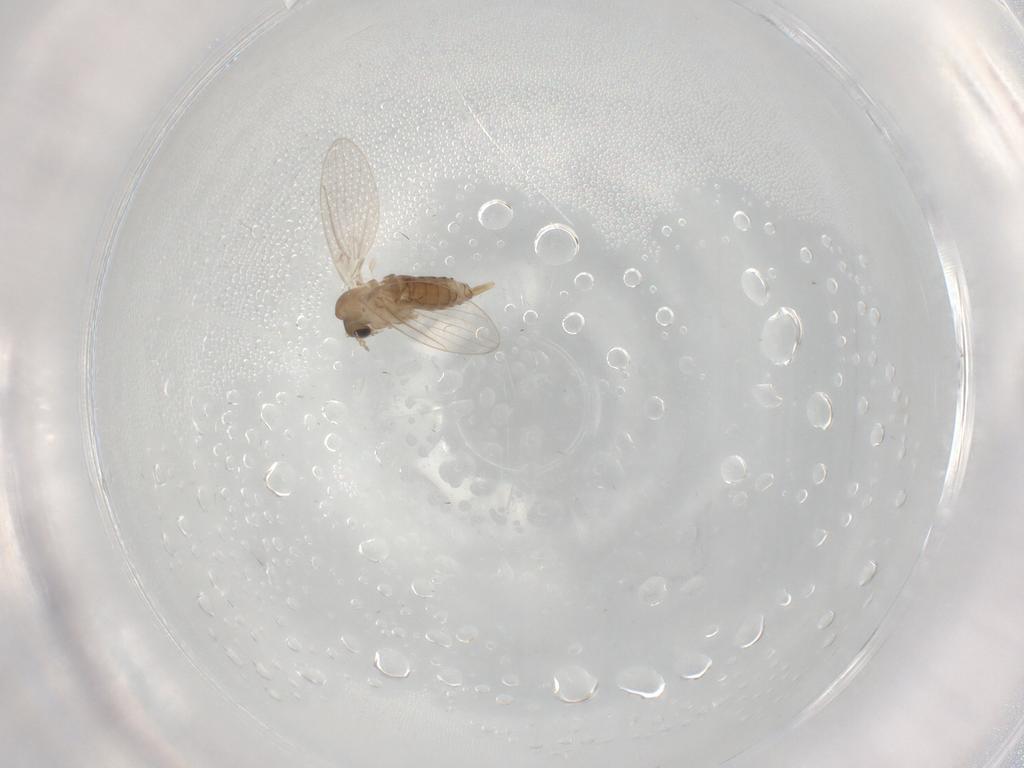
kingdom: Animalia
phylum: Arthropoda
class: Insecta
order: Diptera
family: Psychodidae
